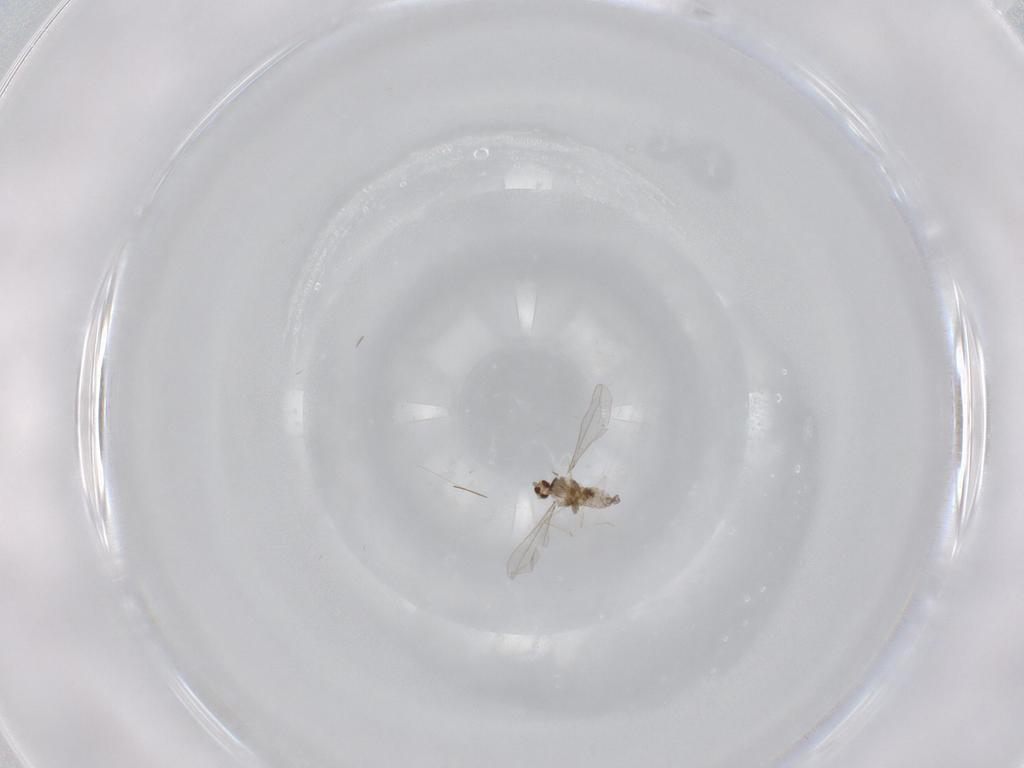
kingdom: Animalia
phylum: Arthropoda
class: Insecta
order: Diptera
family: Cecidomyiidae
